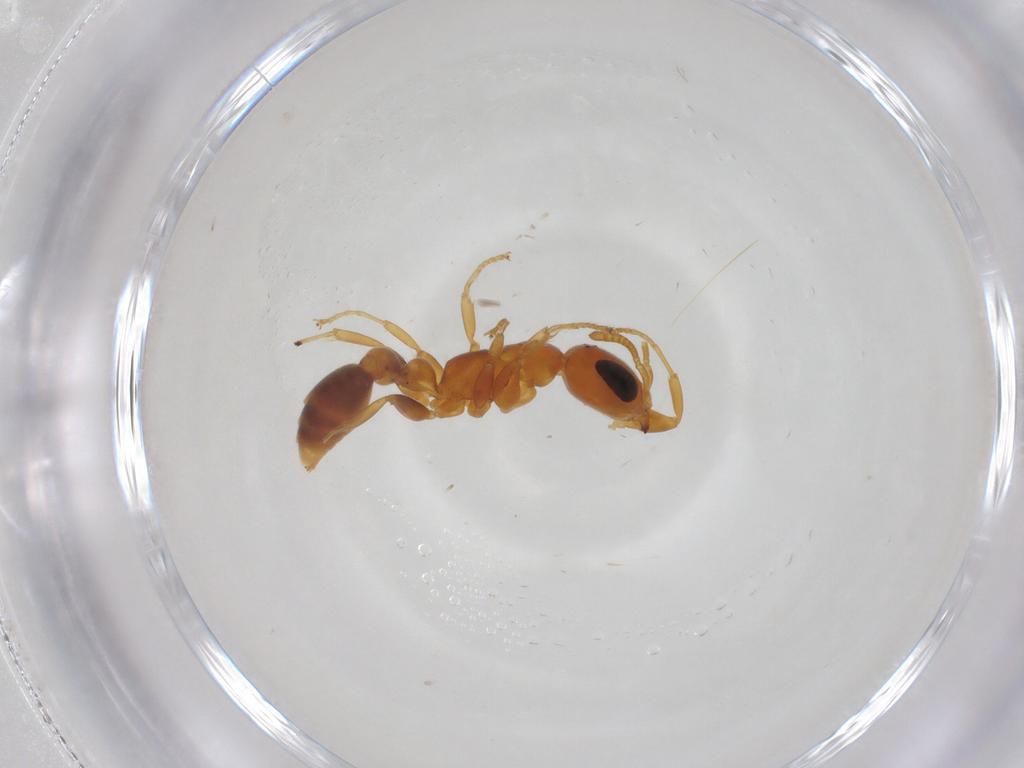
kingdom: Animalia
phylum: Arthropoda
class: Insecta
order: Hymenoptera
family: Formicidae
